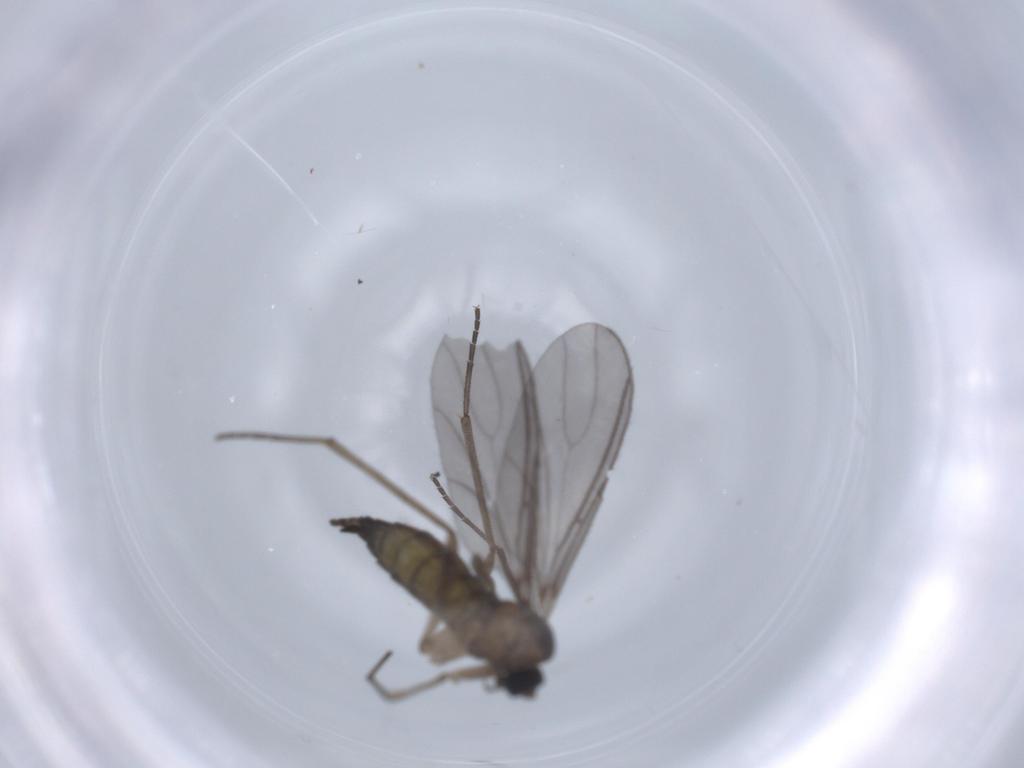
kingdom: Animalia
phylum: Arthropoda
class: Insecta
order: Diptera
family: Sciaridae
